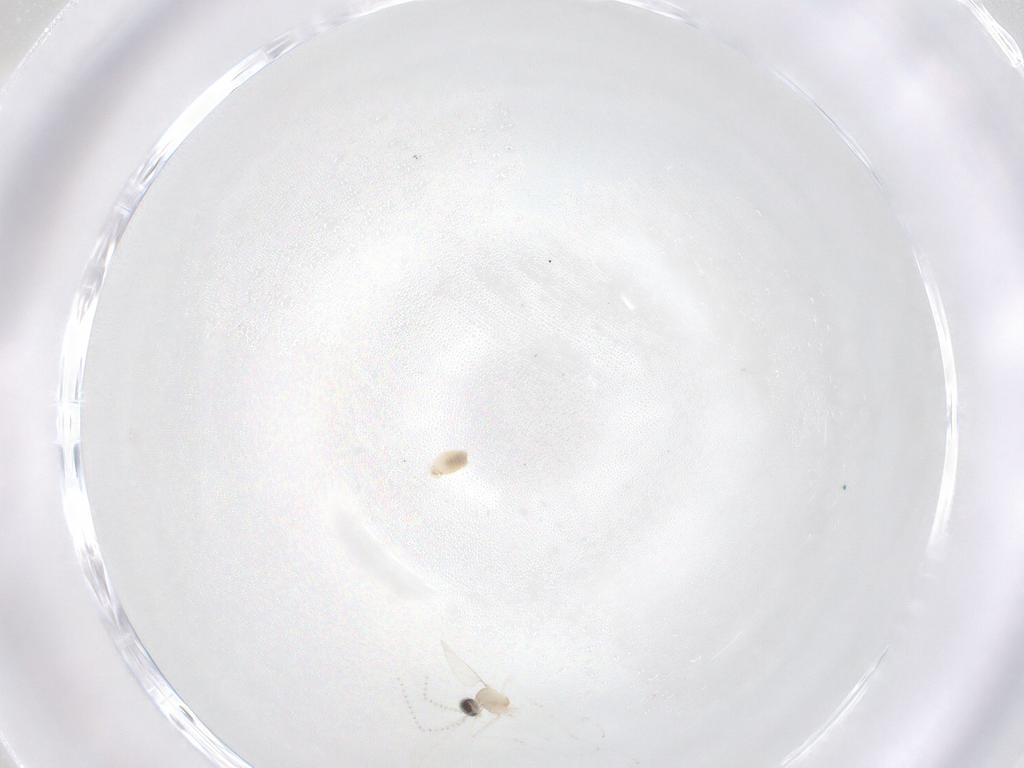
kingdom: Animalia
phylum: Arthropoda
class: Insecta
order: Diptera
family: Cecidomyiidae
